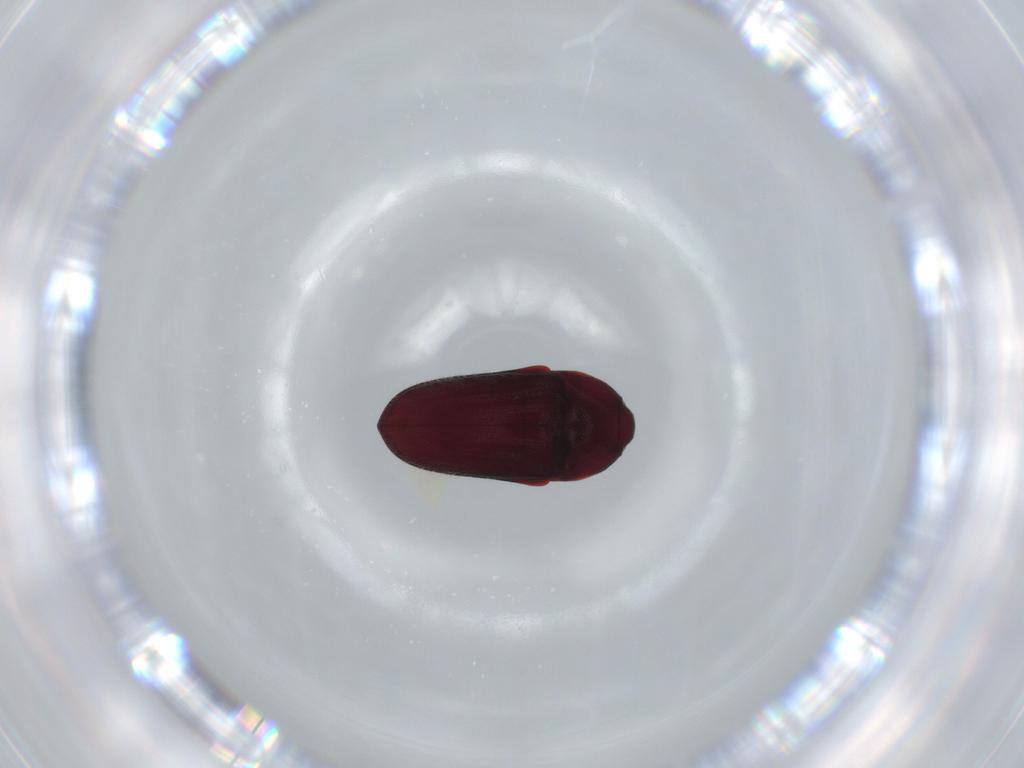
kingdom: Animalia
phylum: Arthropoda
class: Insecta
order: Coleoptera
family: Throscidae
